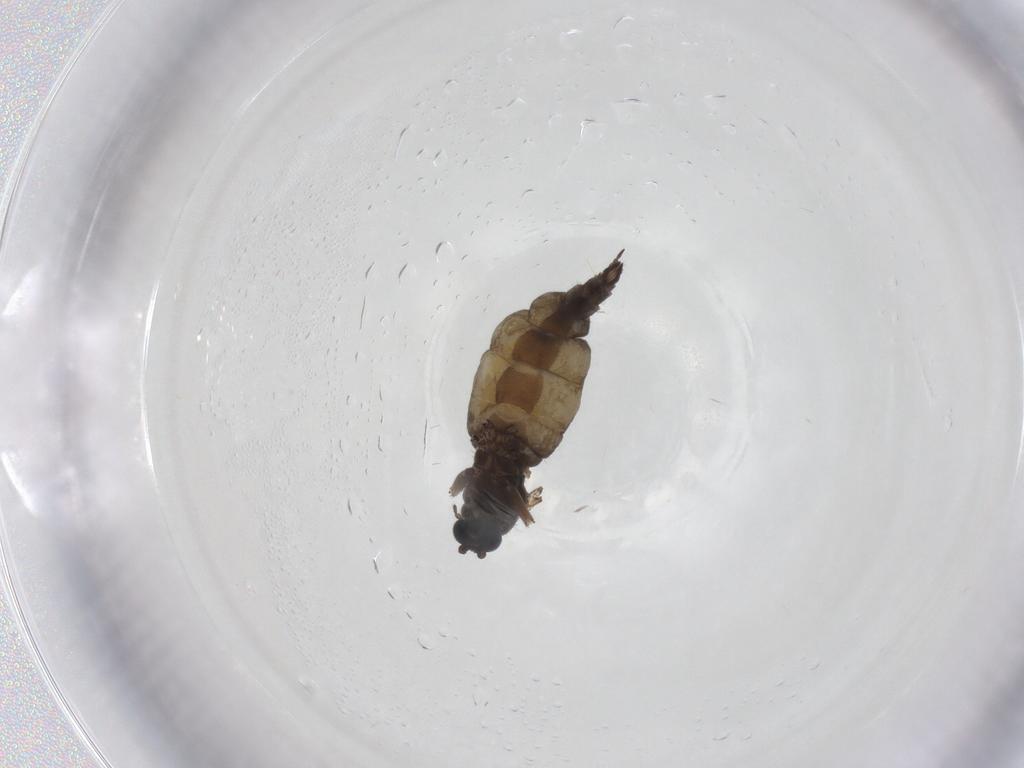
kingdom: Animalia
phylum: Arthropoda
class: Insecta
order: Diptera
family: Sciaridae
